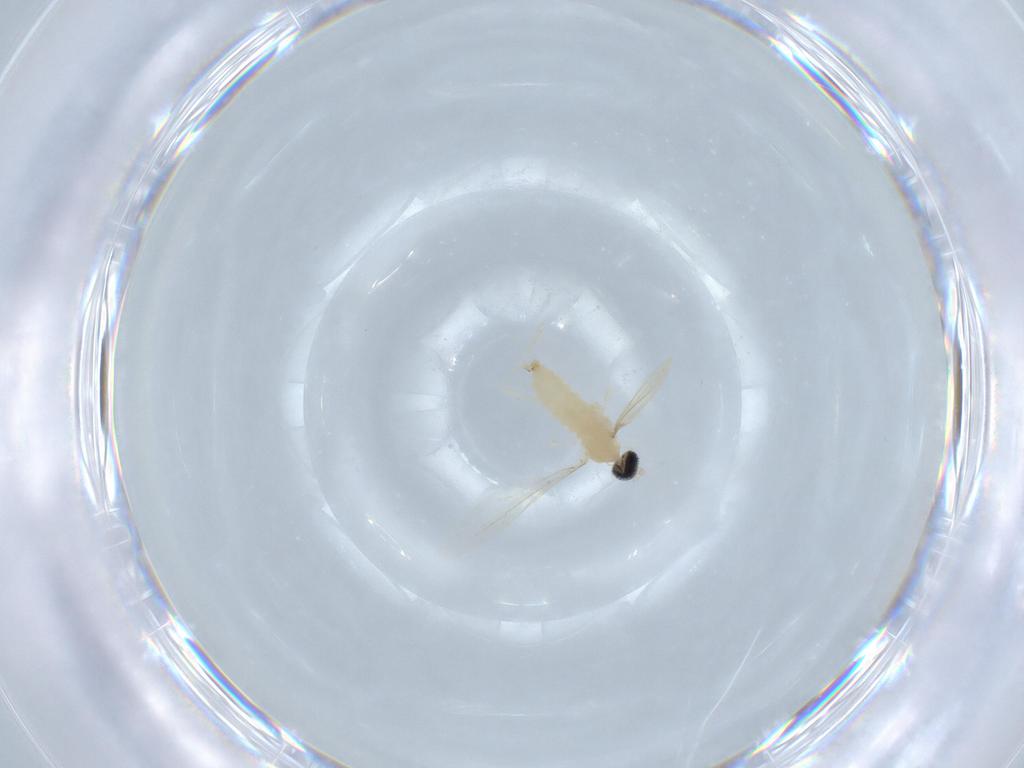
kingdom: Animalia
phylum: Arthropoda
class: Insecta
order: Diptera
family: Cecidomyiidae
